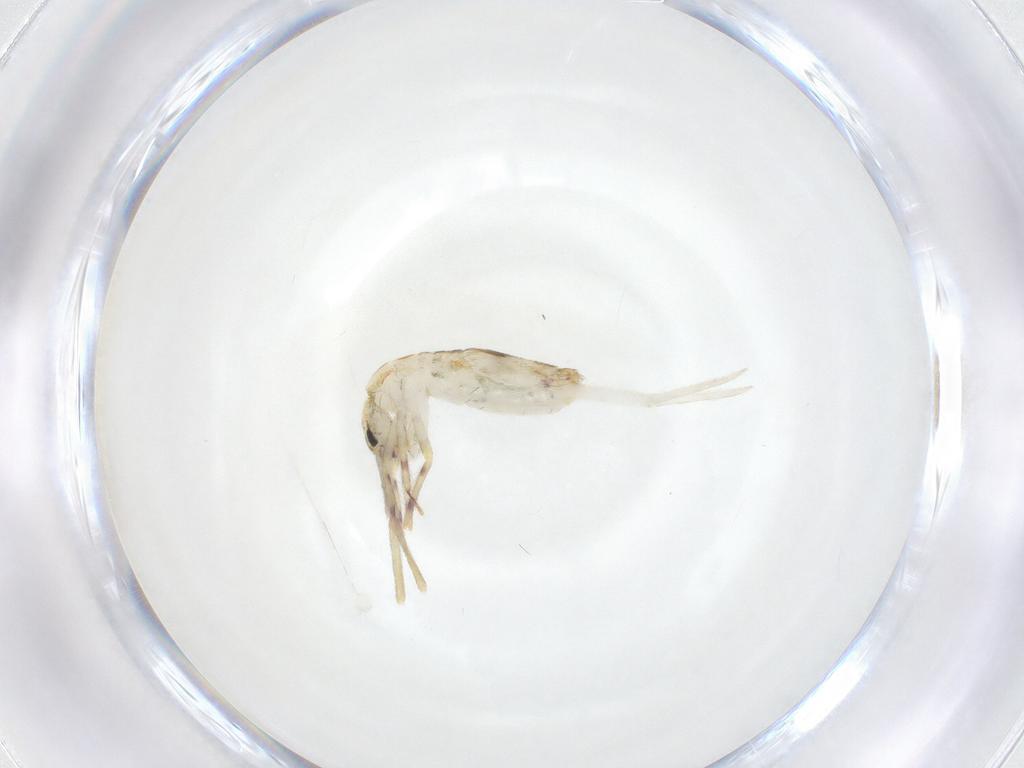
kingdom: Animalia
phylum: Arthropoda
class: Collembola
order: Entomobryomorpha
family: Entomobryidae
